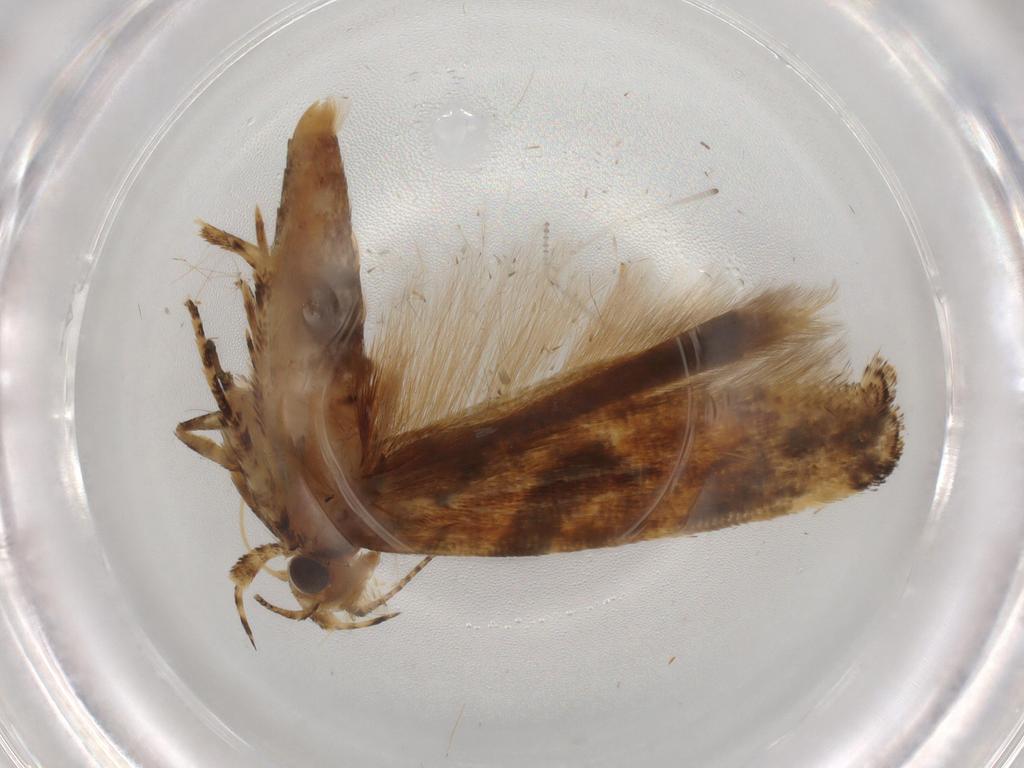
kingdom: Animalia
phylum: Arthropoda
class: Insecta
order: Lepidoptera
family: Gelechiidae
